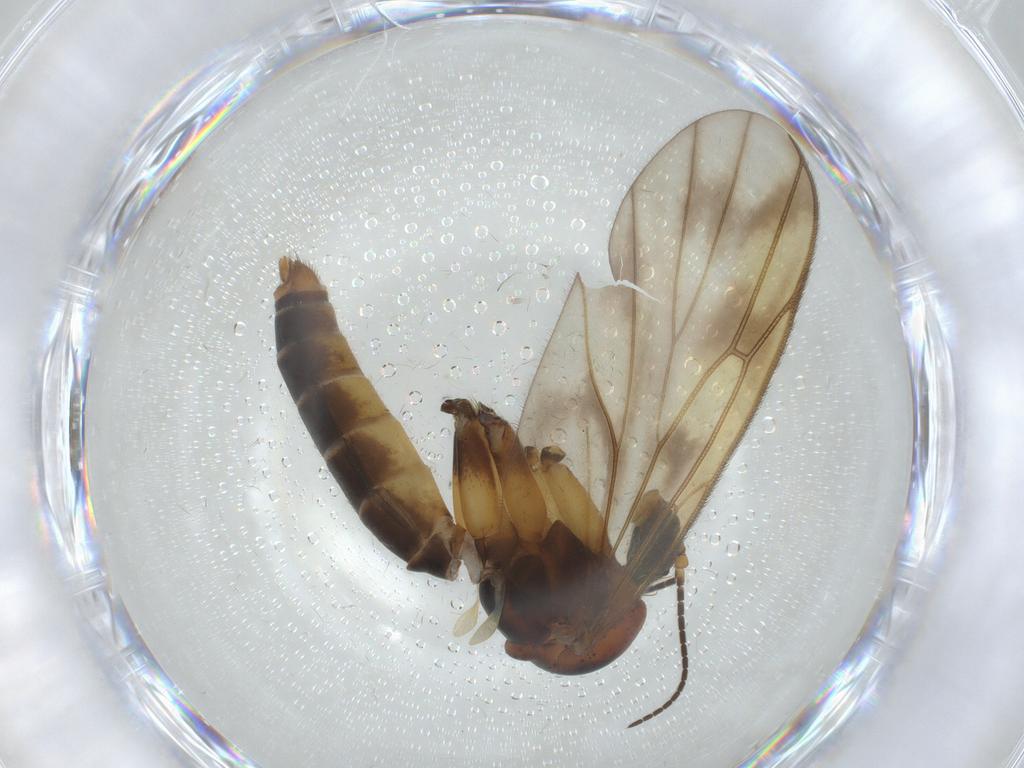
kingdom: Animalia
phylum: Arthropoda
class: Insecta
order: Diptera
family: Mycetophilidae
